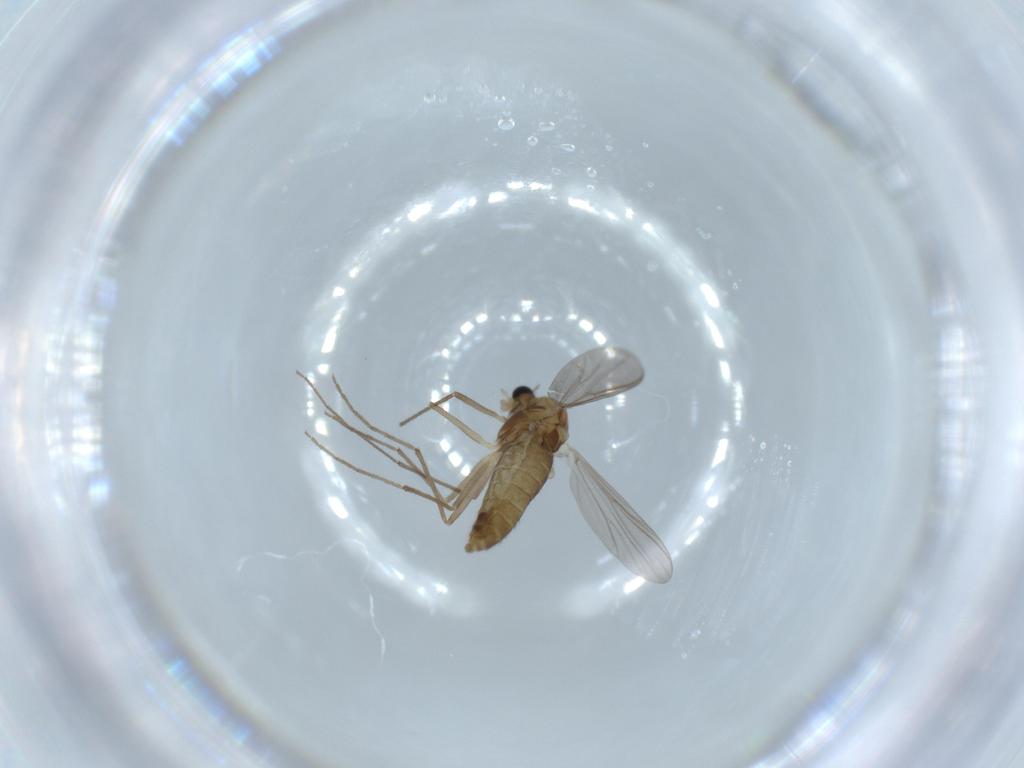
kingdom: Animalia
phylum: Arthropoda
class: Insecta
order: Diptera
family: Chironomidae
